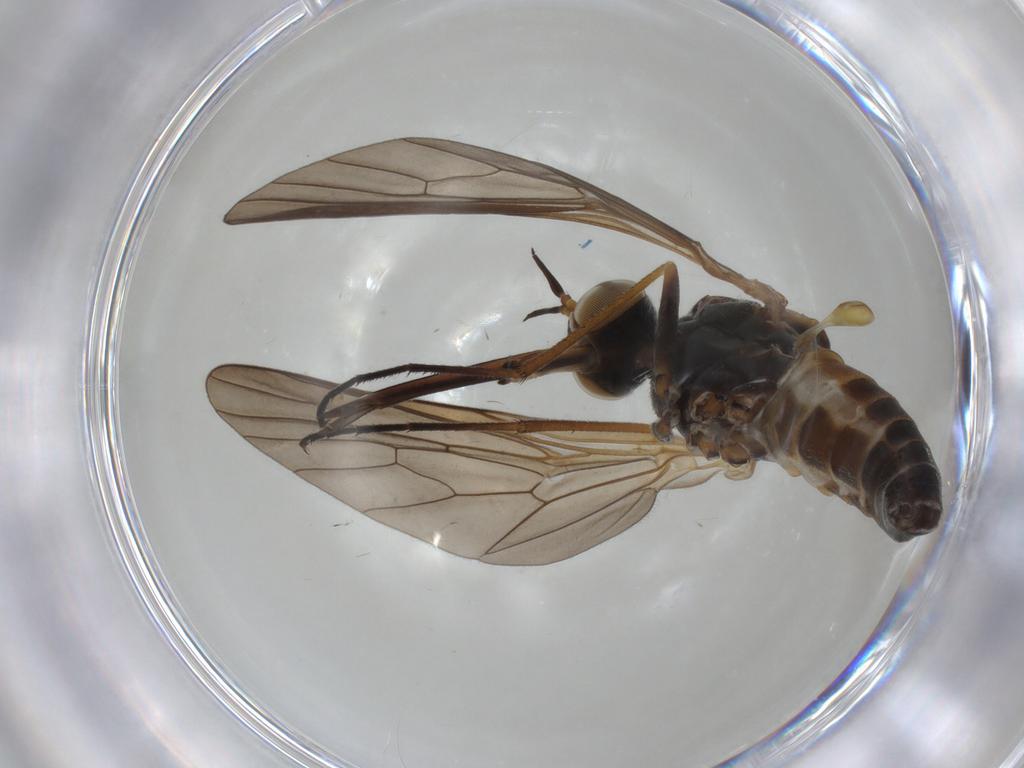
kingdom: Animalia
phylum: Arthropoda
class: Insecta
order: Diptera
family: Bombyliidae
